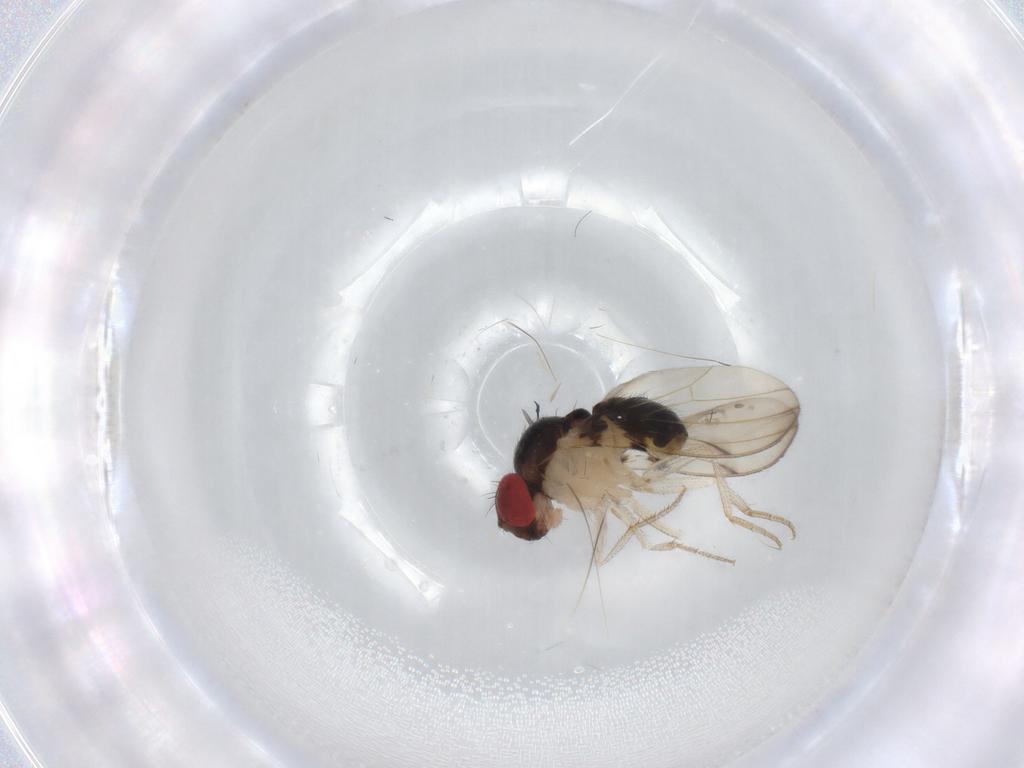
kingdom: Animalia
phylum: Arthropoda
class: Insecta
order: Diptera
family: Drosophilidae
